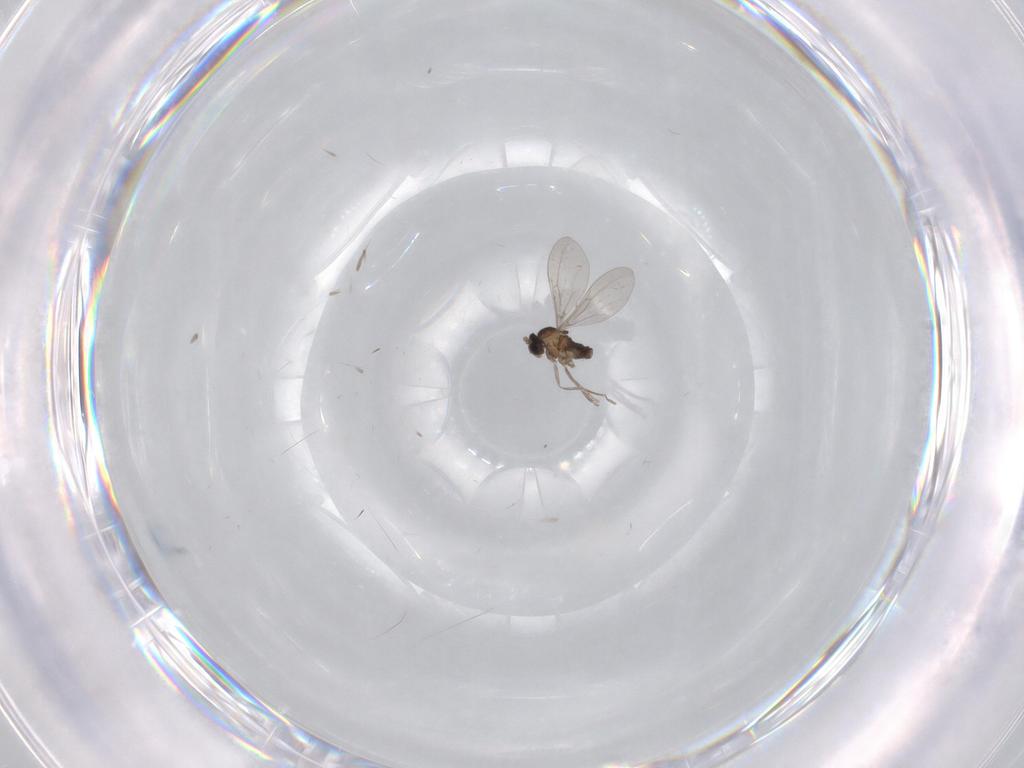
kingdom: Animalia
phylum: Arthropoda
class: Insecta
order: Diptera
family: Cecidomyiidae
